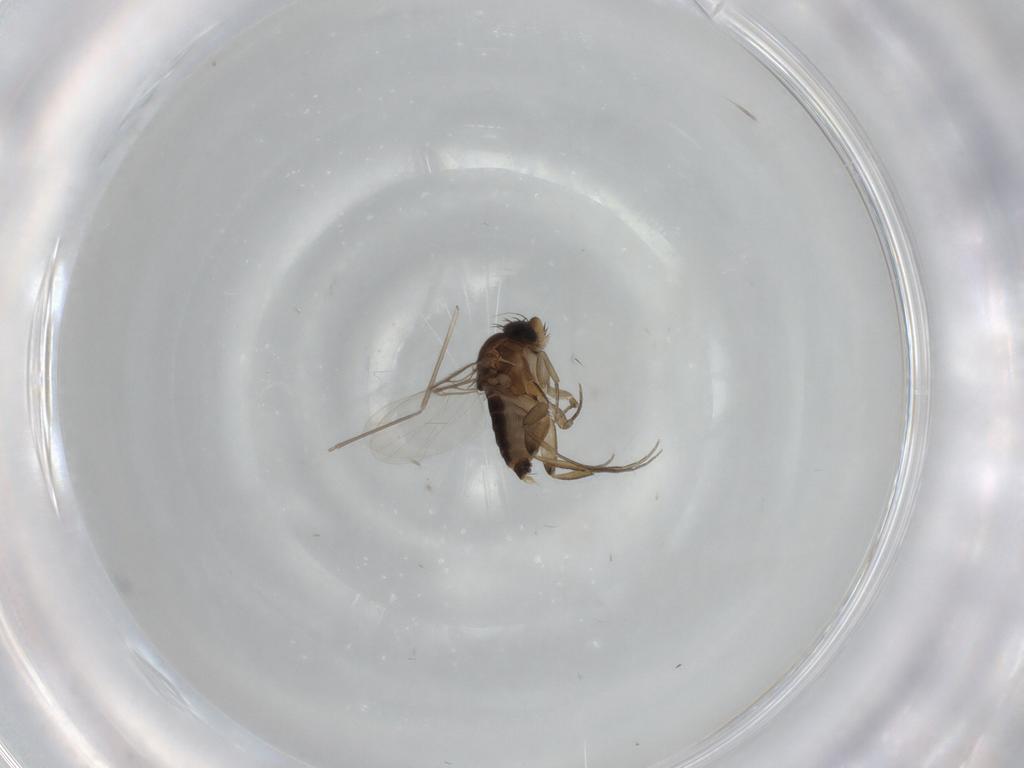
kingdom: Animalia
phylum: Arthropoda
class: Insecta
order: Diptera
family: Phoridae
